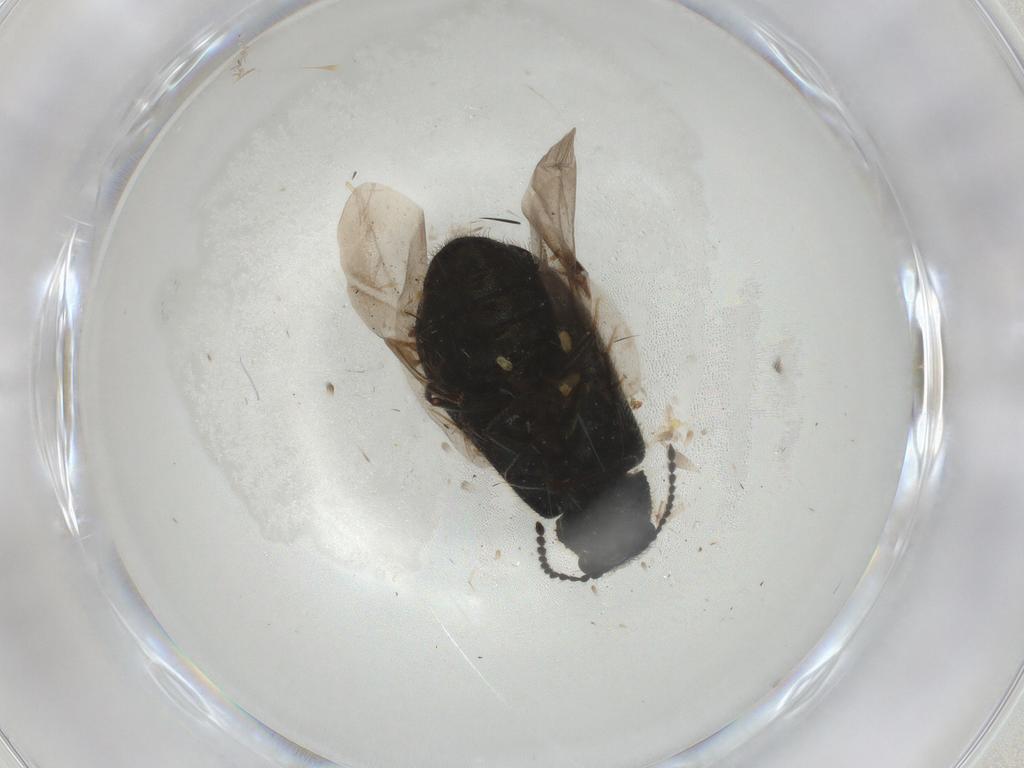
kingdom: Animalia
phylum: Arthropoda
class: Insecta
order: Coleoptera
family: Melyridae
